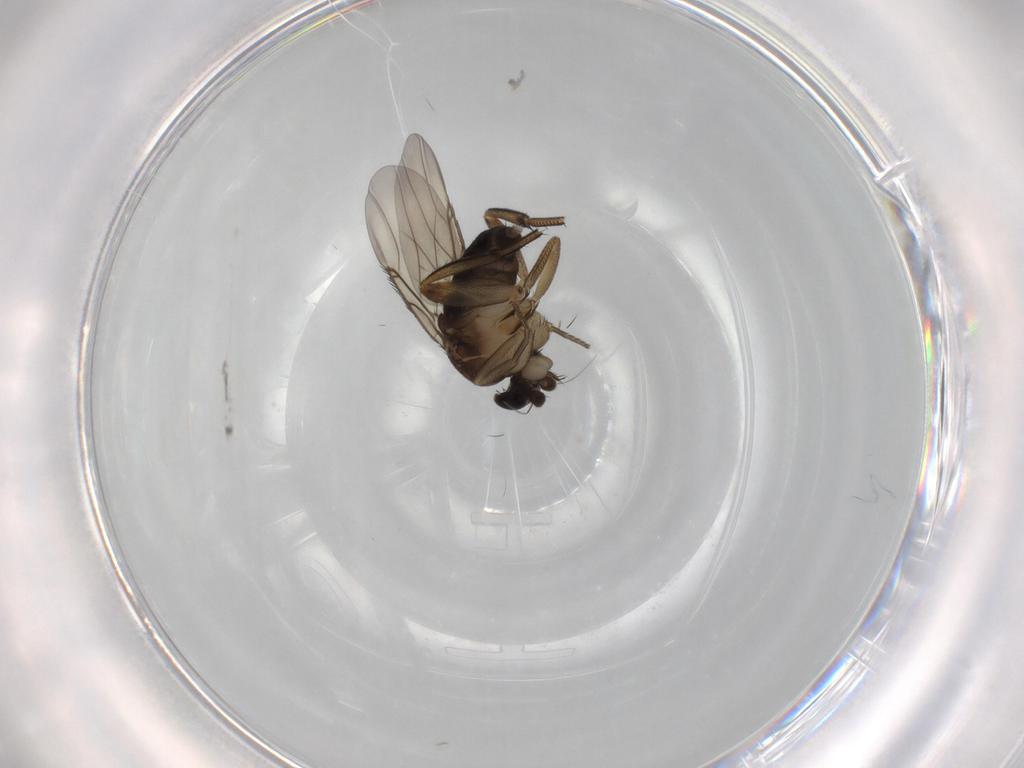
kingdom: Animalia
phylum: Arthropoda
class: Insecta
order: Diptera
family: Phoridae
